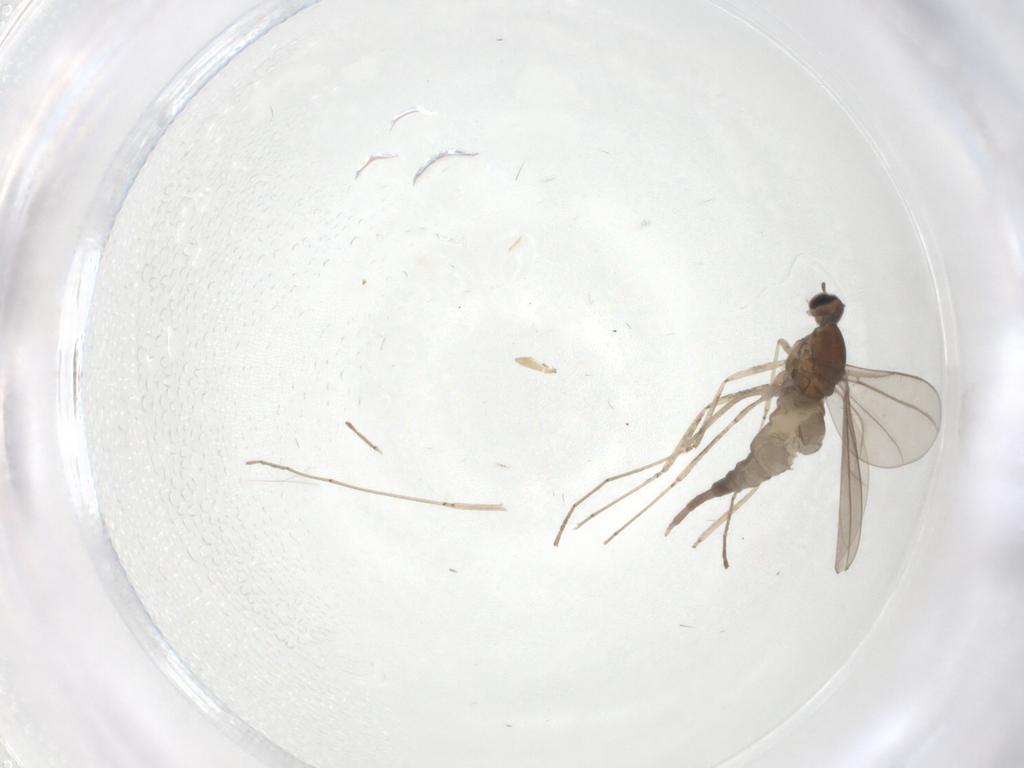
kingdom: Animalia
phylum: Arthropoda
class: Insecta
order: Diptera
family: Cecidomyiidae
